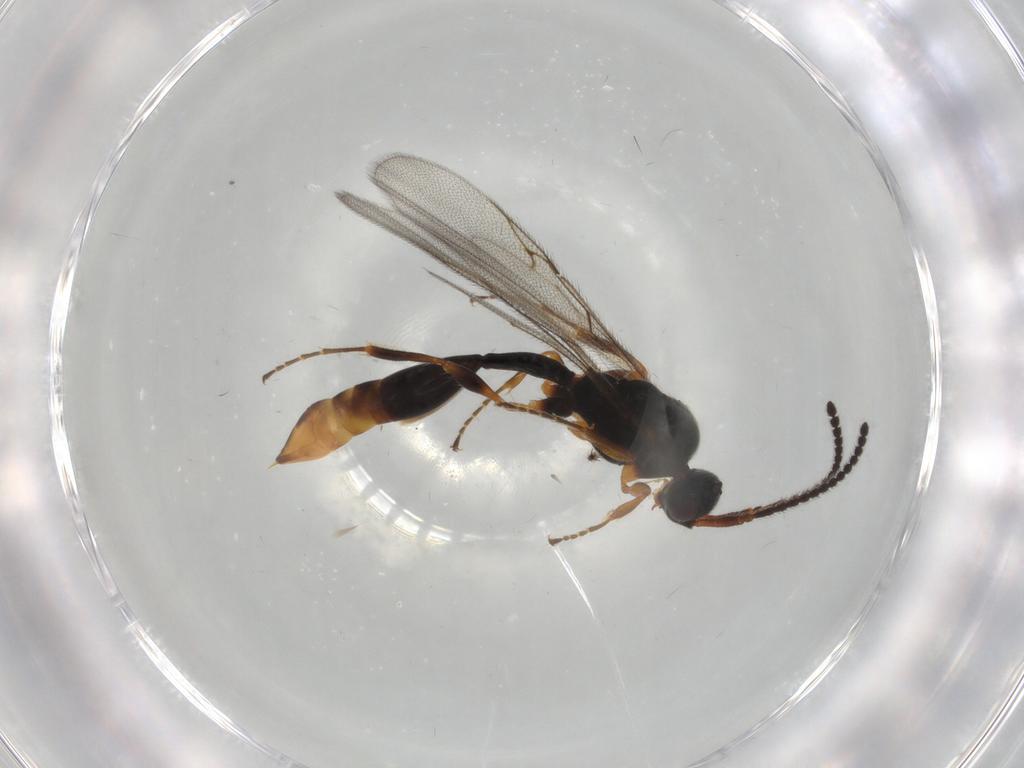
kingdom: Animalia
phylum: Arthropoda
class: Insecta
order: Hymenoptera
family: Diapriidae
